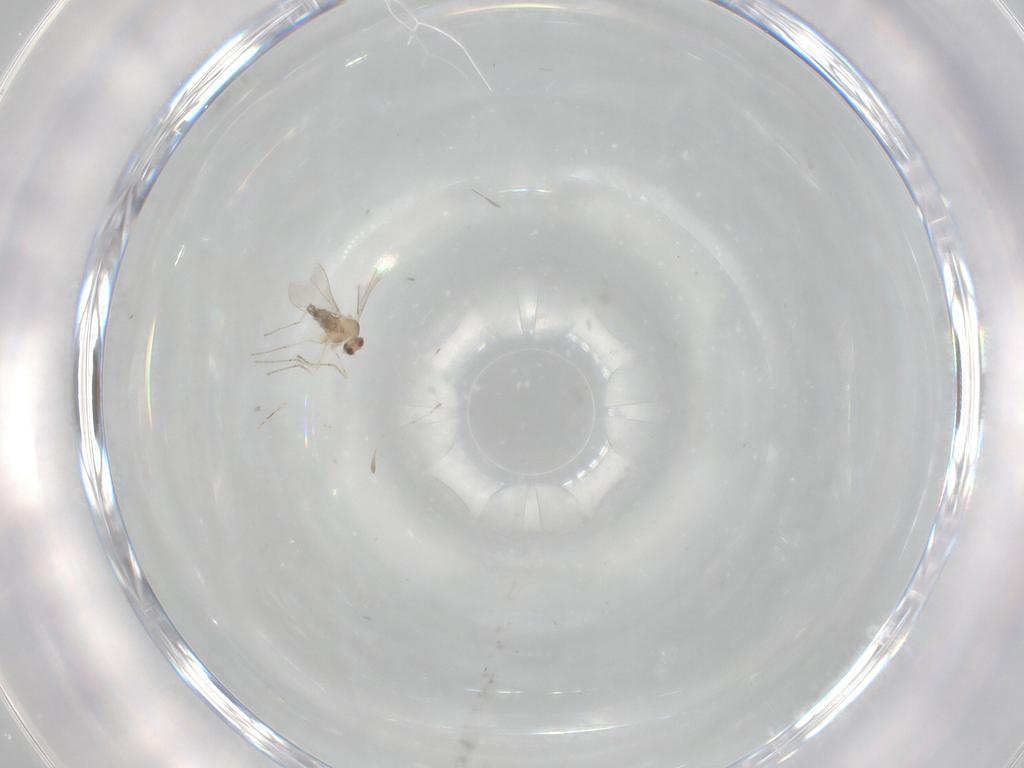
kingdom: Animalia
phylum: Arthropoda
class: Insecta
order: Diptera
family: Cecidomyiidae
